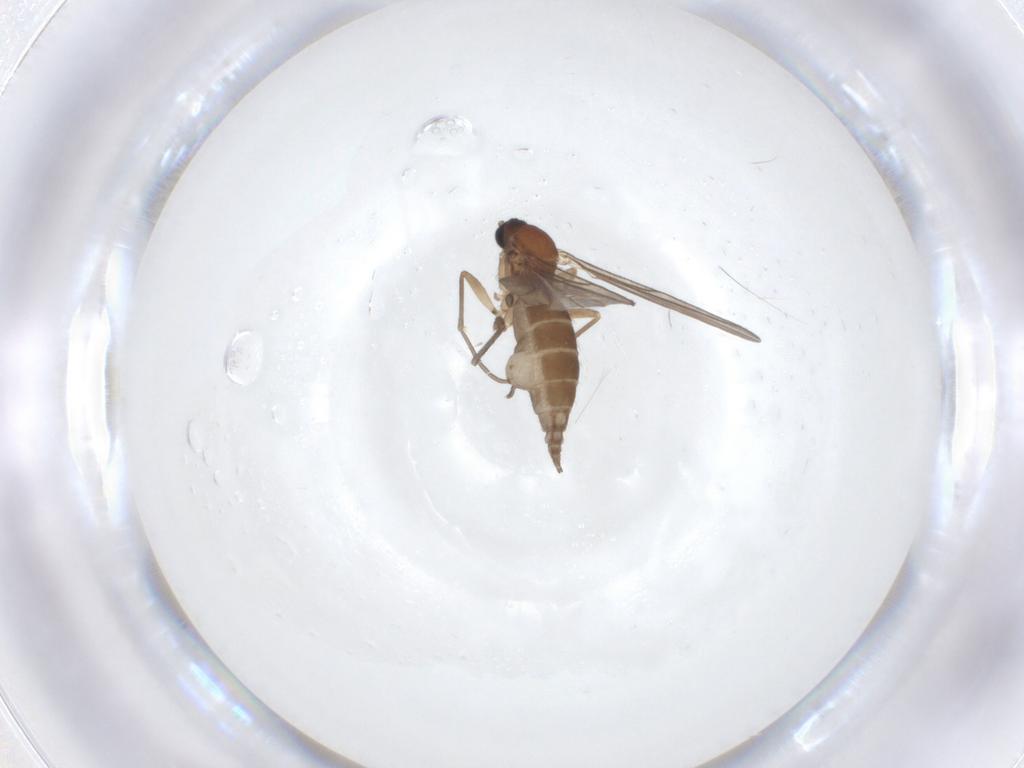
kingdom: Animalia
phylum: Arthropoda
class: Insecta
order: Diptera
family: Sciaridae
